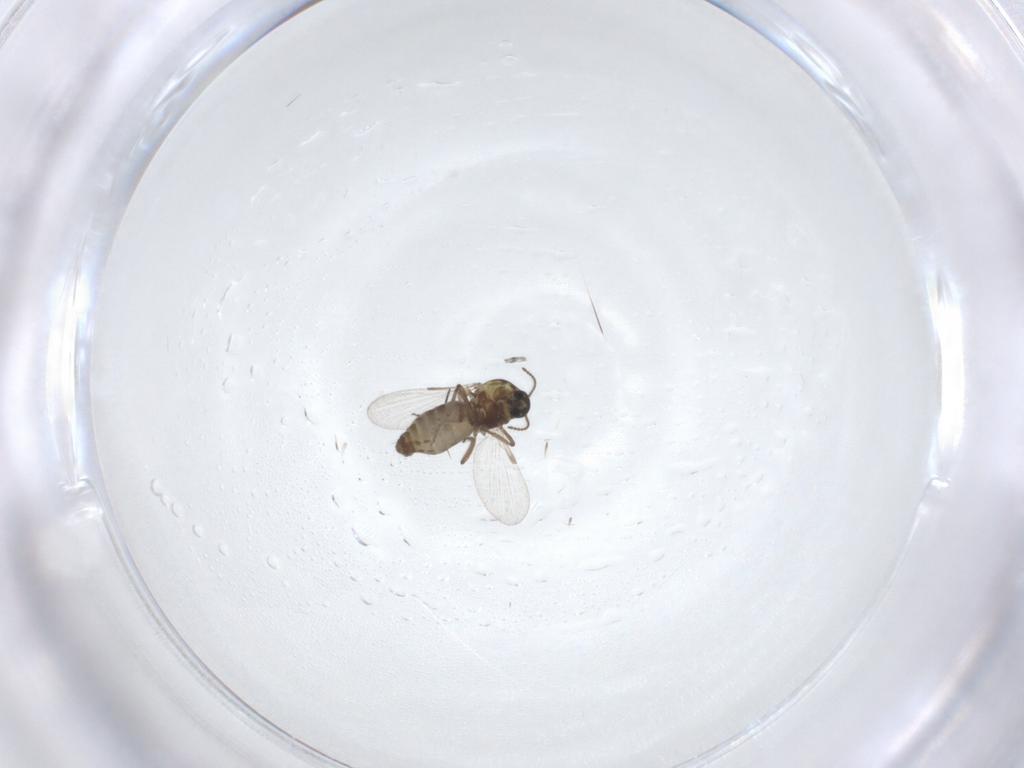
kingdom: Animalia
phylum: Arthropoda
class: Insecta
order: Diptera
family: Ceratopogonidae
